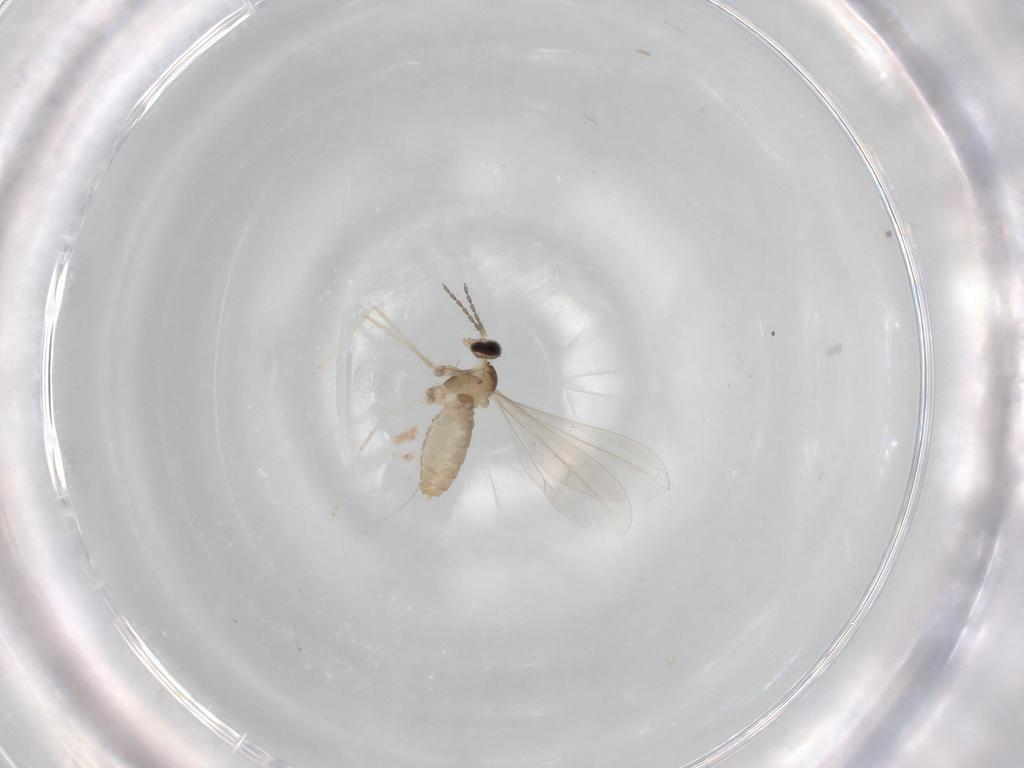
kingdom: Animalia
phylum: Arthropoda
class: Insecta
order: Diptera
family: Cecidomyiidae
